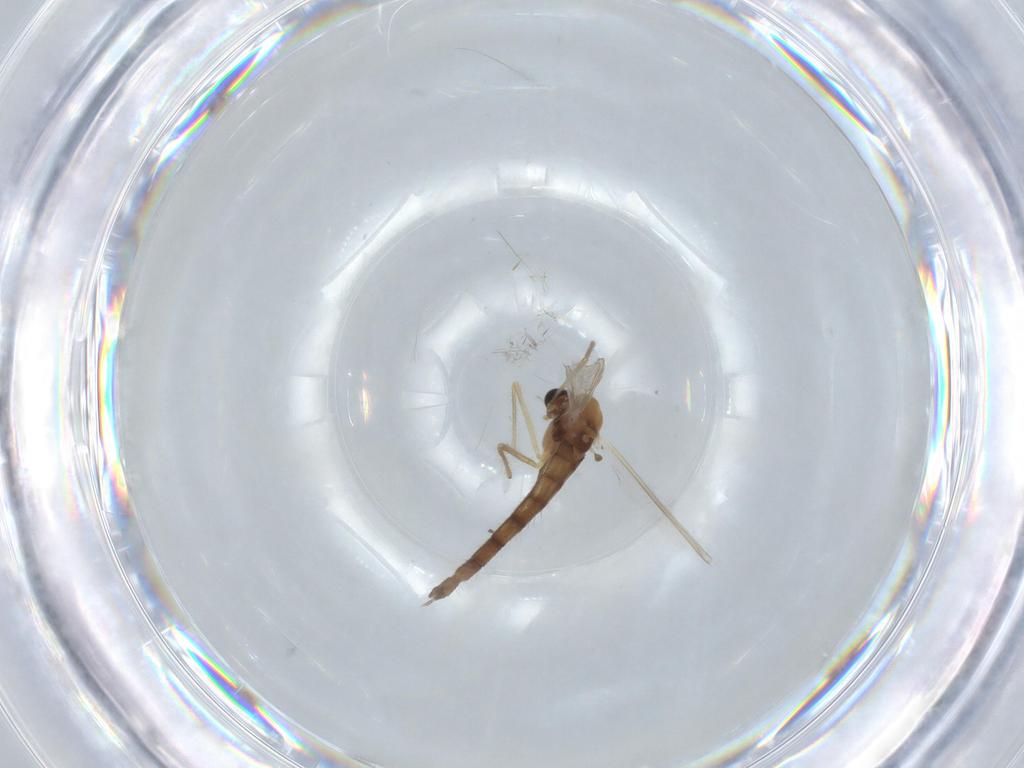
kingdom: Animalia
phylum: Arthropoda
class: Insecta
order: Diptera
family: Chironomidae
